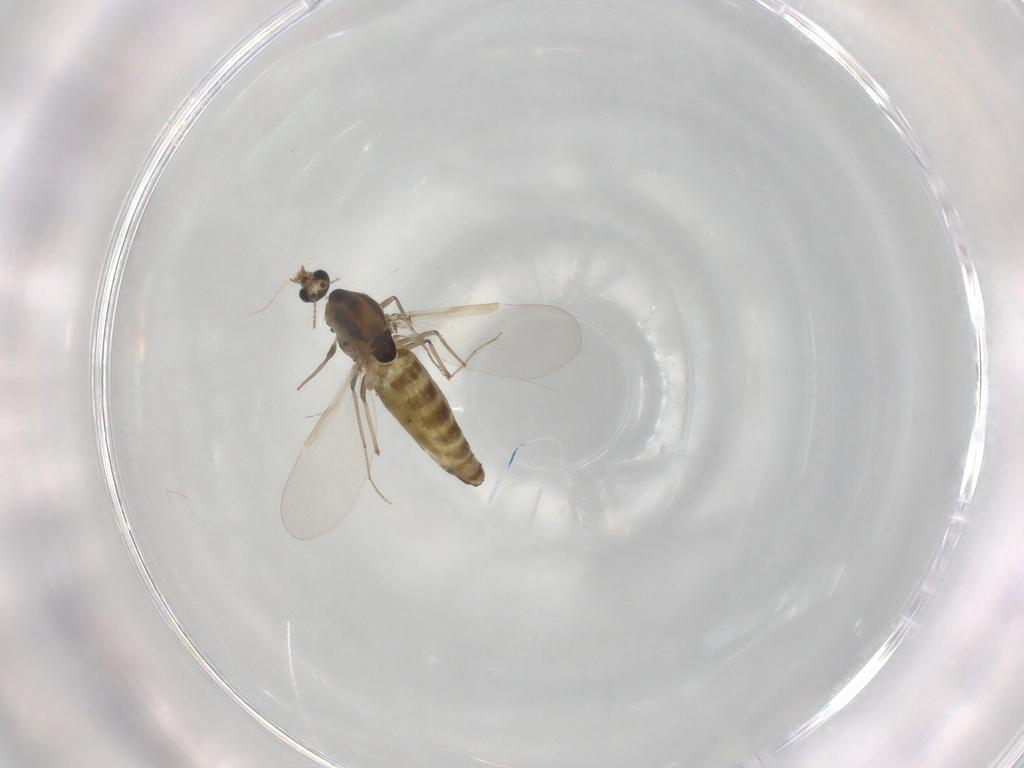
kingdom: Animalia
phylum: Arthropoda
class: Insecta
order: Diptera
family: Chironomidae
